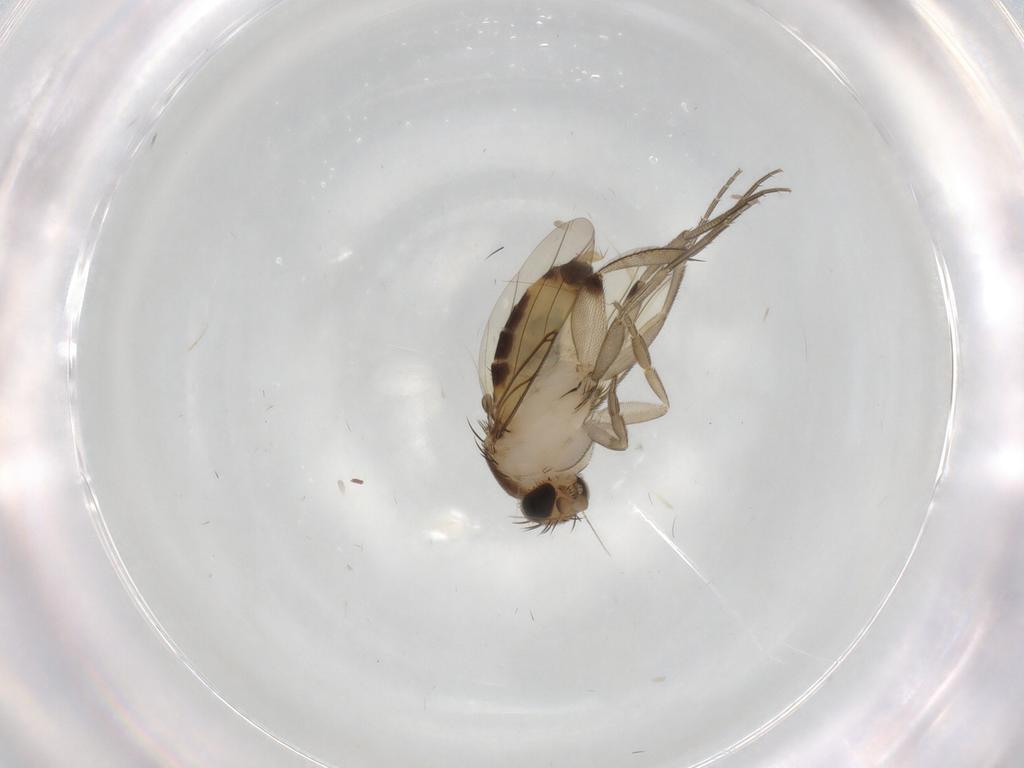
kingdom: Animalia
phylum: Arthropoda
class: Insecta
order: Diptera
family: Phoridae
